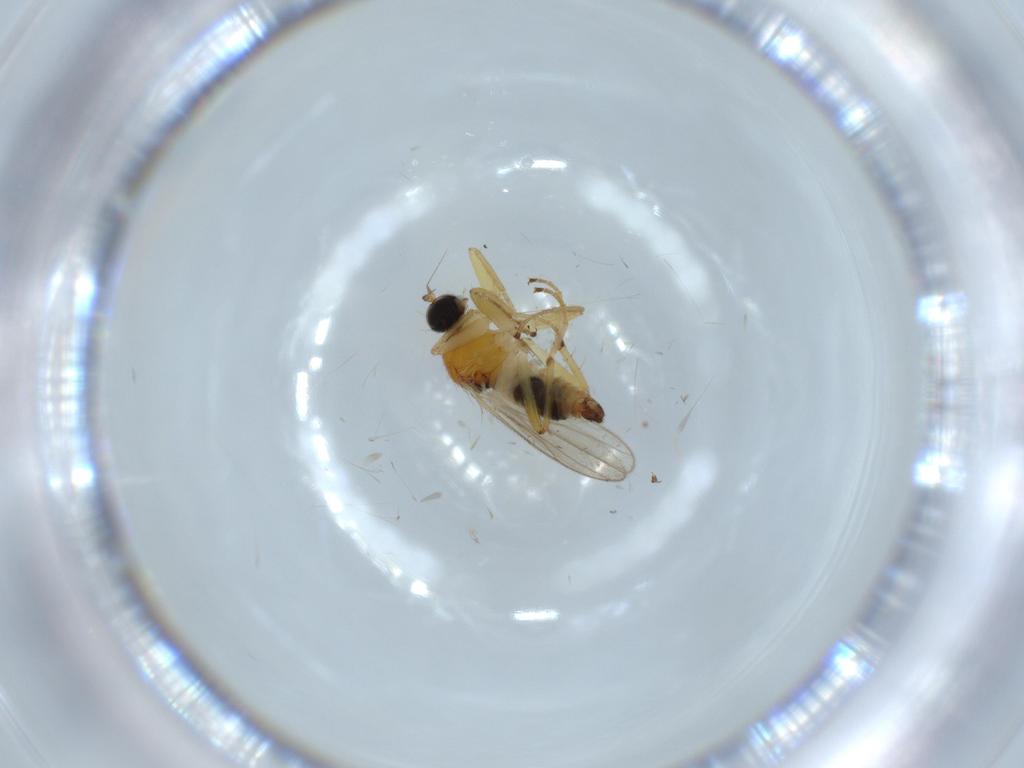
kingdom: Animalia
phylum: Arthropoda
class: Insecta
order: Diptera
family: Hybotidae
